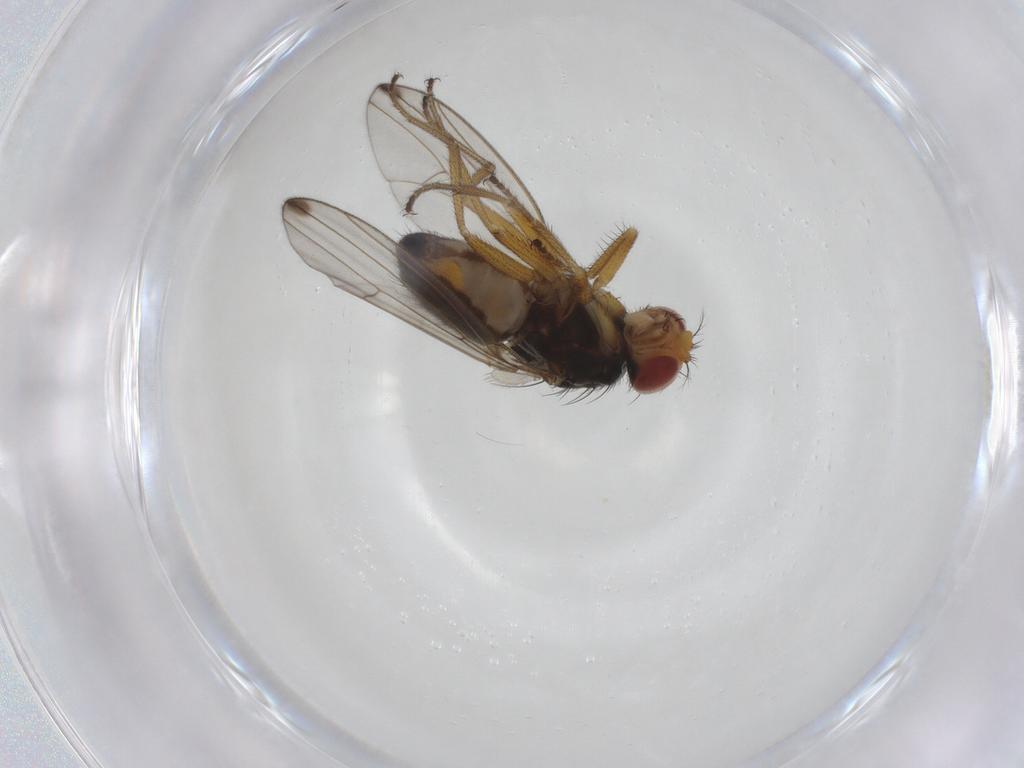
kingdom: Animalia
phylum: Arthropoda
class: Insecta
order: Diptera
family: Drosophilidae
